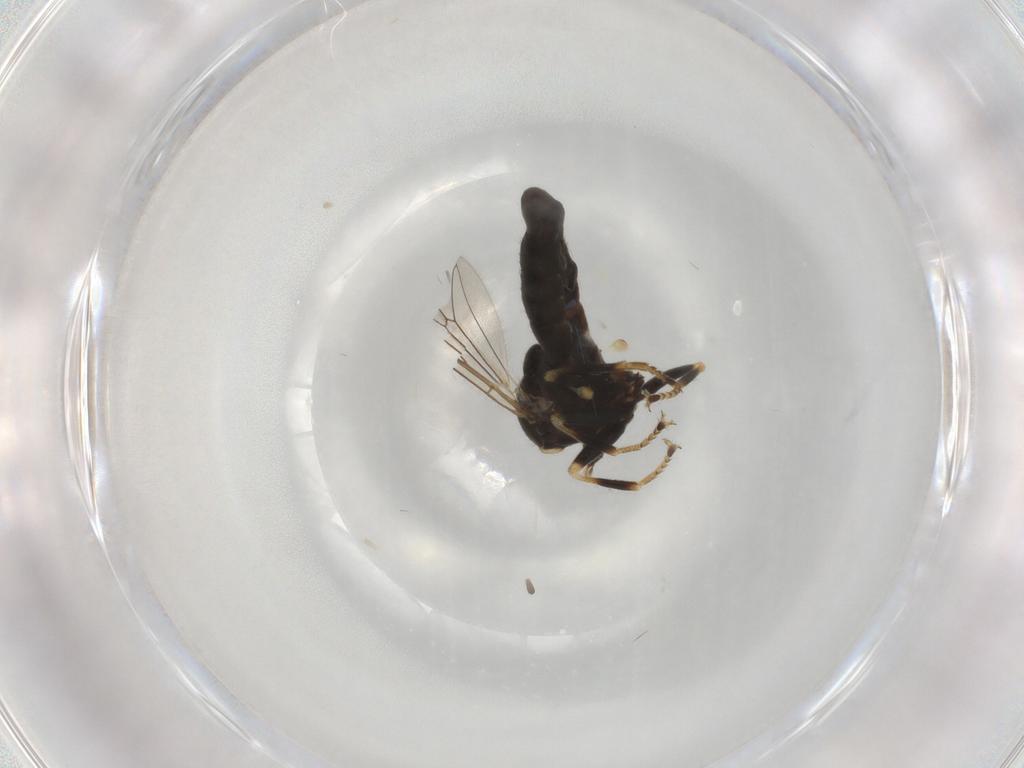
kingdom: Animalia
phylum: Arthropoda
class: Insecta
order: Diptera
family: Pipunculidae
